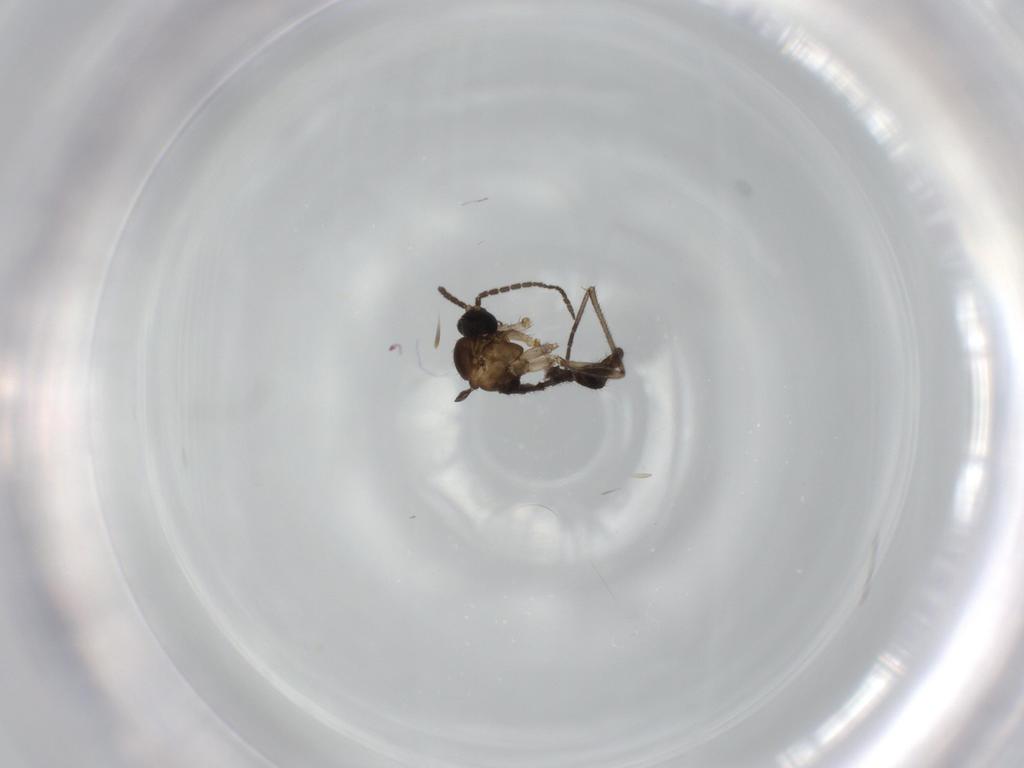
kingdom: Animalia
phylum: Arthropoda
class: Insecta
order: Diptera
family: Sciaridae
